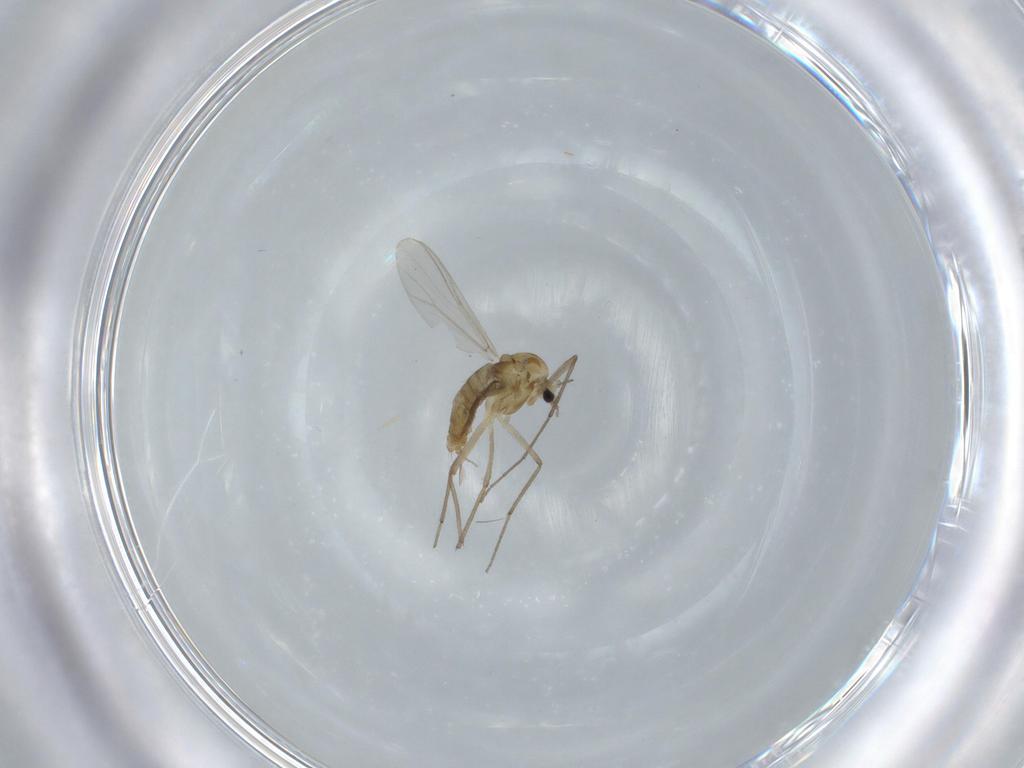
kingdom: Animalia
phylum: Arthropoda
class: Insecta
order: Diptera
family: Chironomidae
